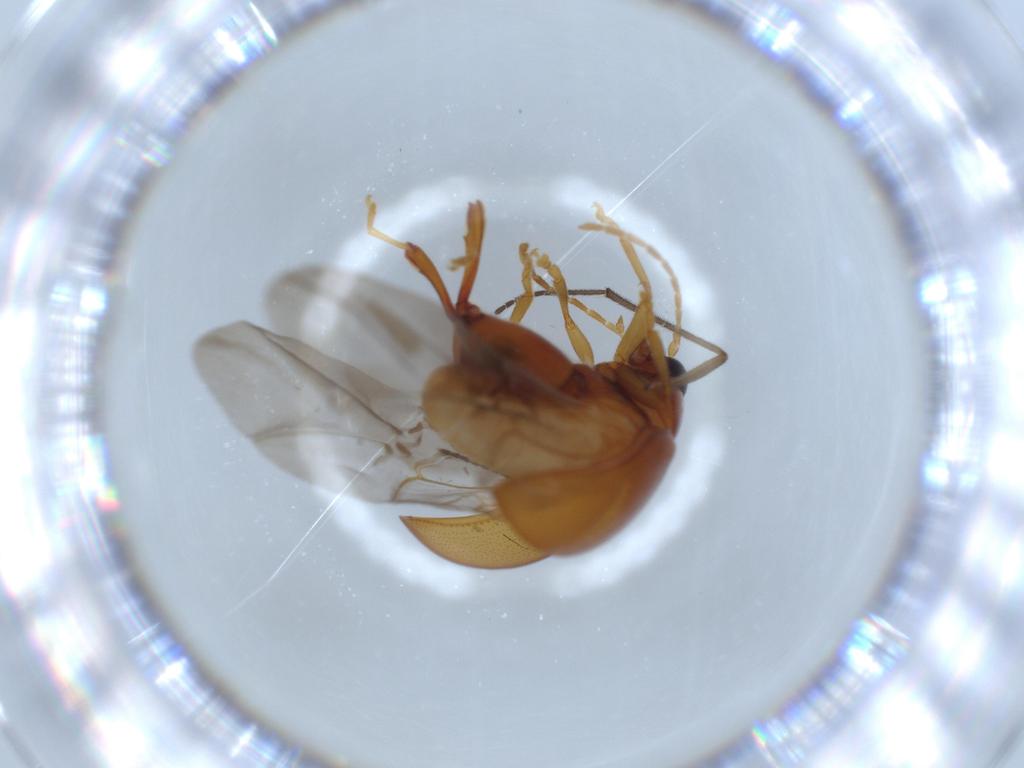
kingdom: Animalia
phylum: Arthropoda
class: Insecta
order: Coleoptera
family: Chrysomelidae
